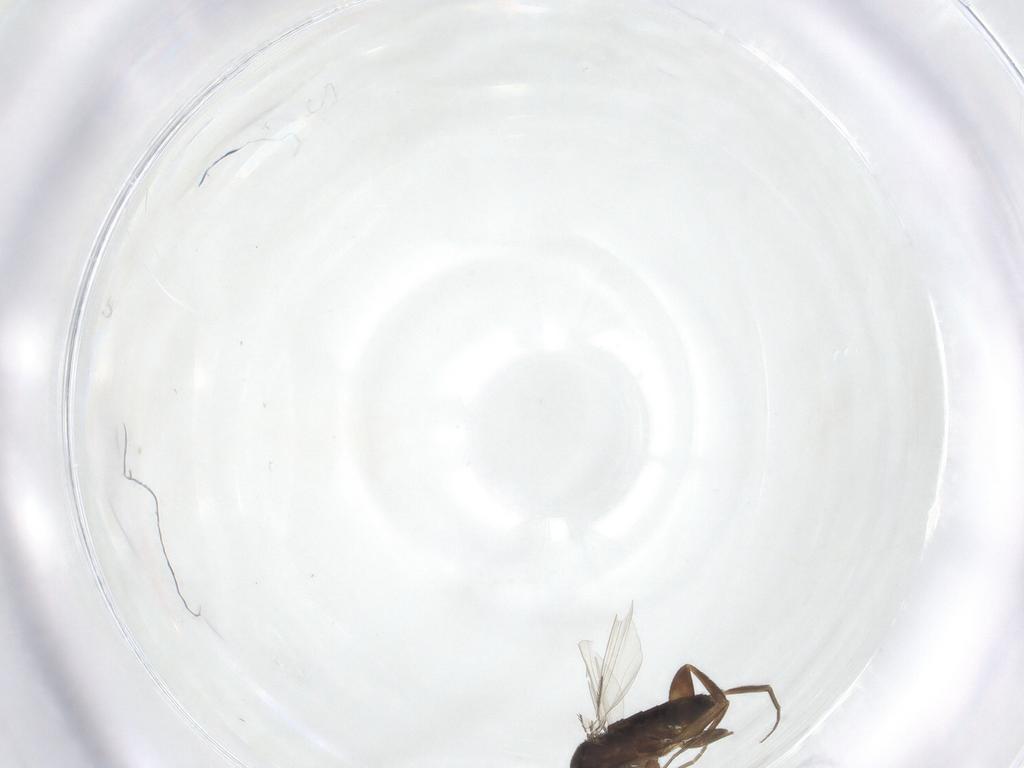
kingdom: Animalia
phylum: Arthropoda
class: Insecta
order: Diptera
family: Phoridae
